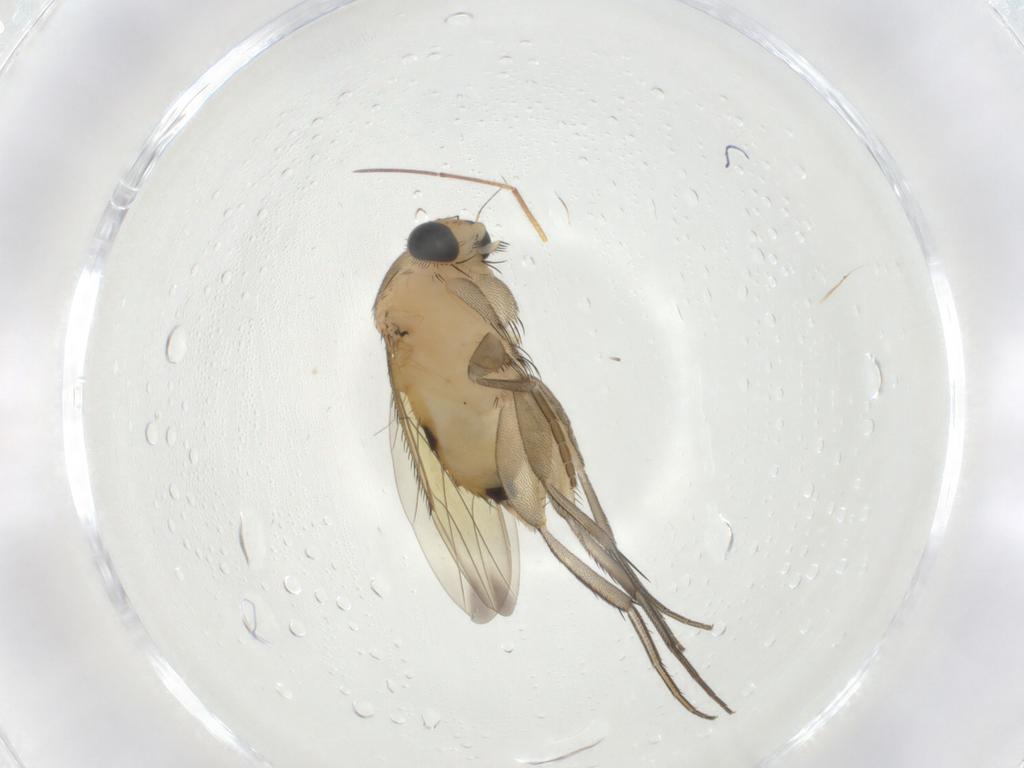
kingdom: Animalia
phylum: Arthropoda
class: Insecta
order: Diptera
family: Phoridae
